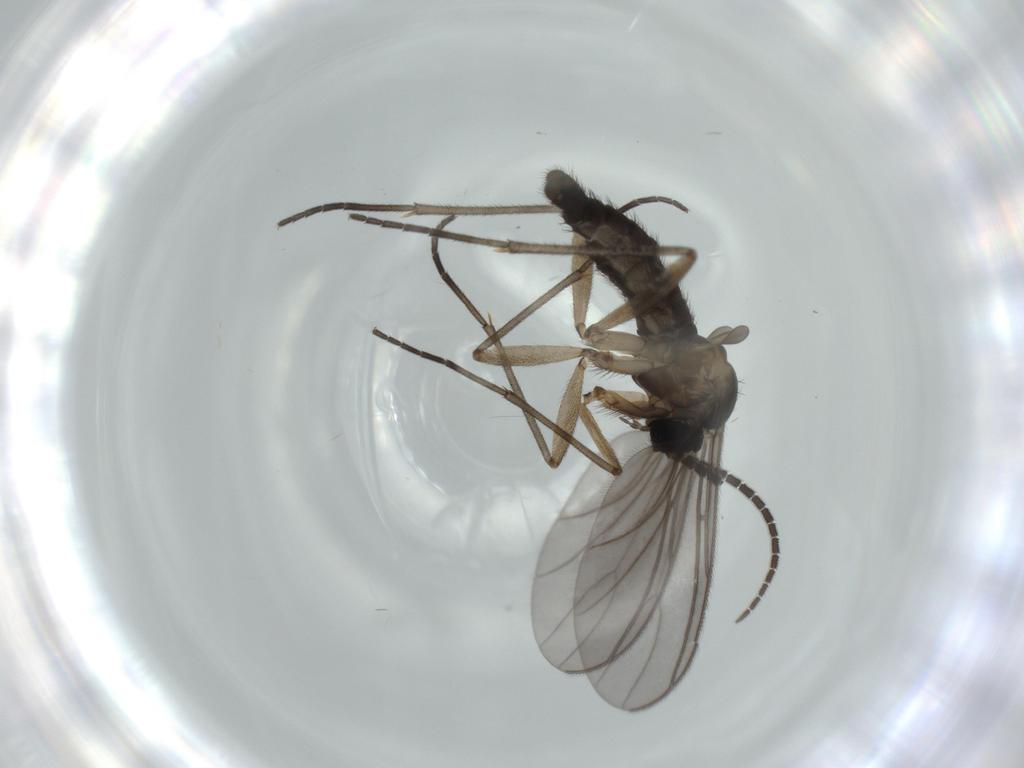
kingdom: Animalia
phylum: Arthropoda
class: Insecta
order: Diptera
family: Sciaridae
